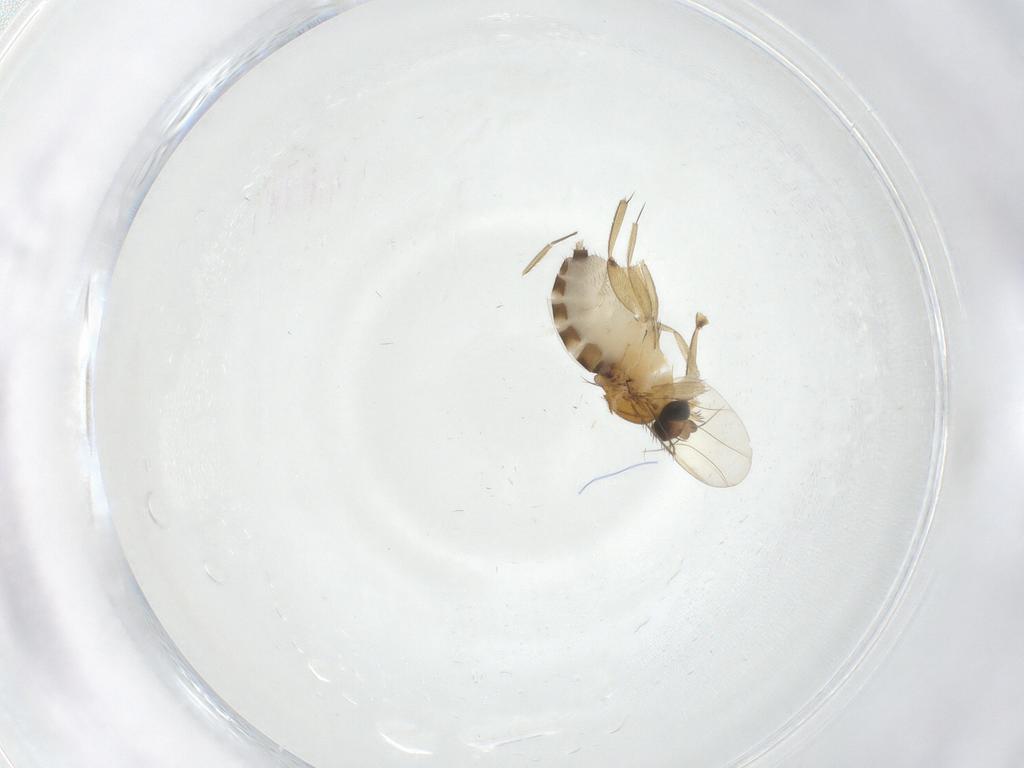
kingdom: Animalia
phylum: Arthropoda
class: Insecta
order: Diptera
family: Phoridae
